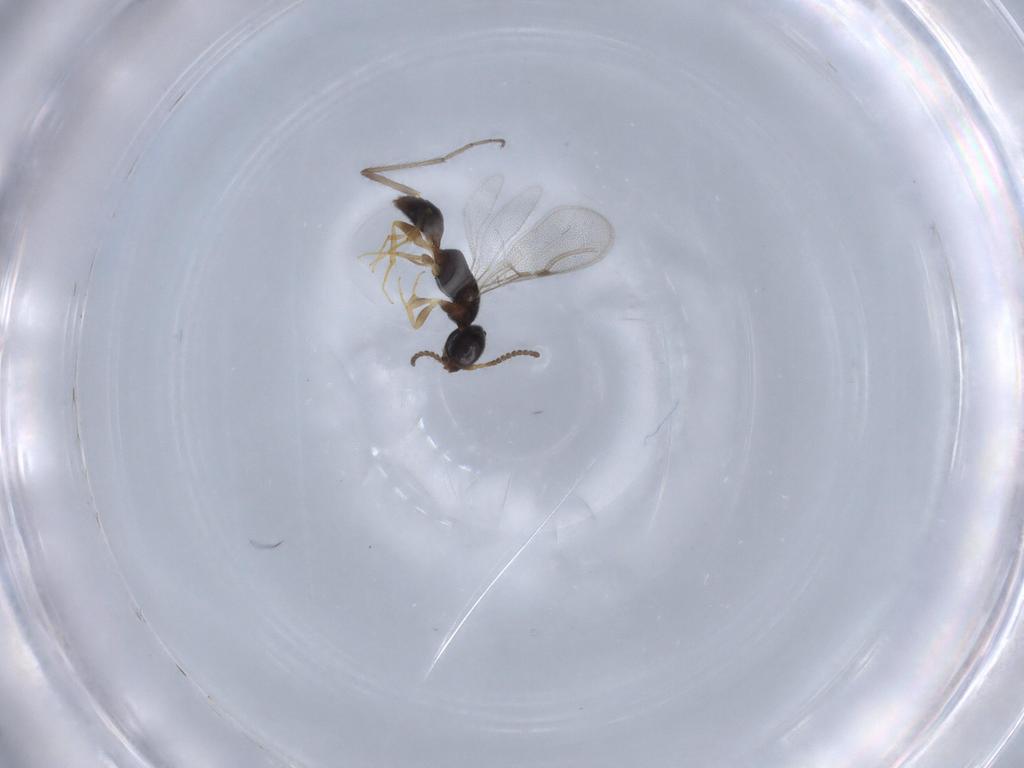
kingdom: Animalia
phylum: Arthropoda
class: Insecta
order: Hymenoptera
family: Bethylidae
